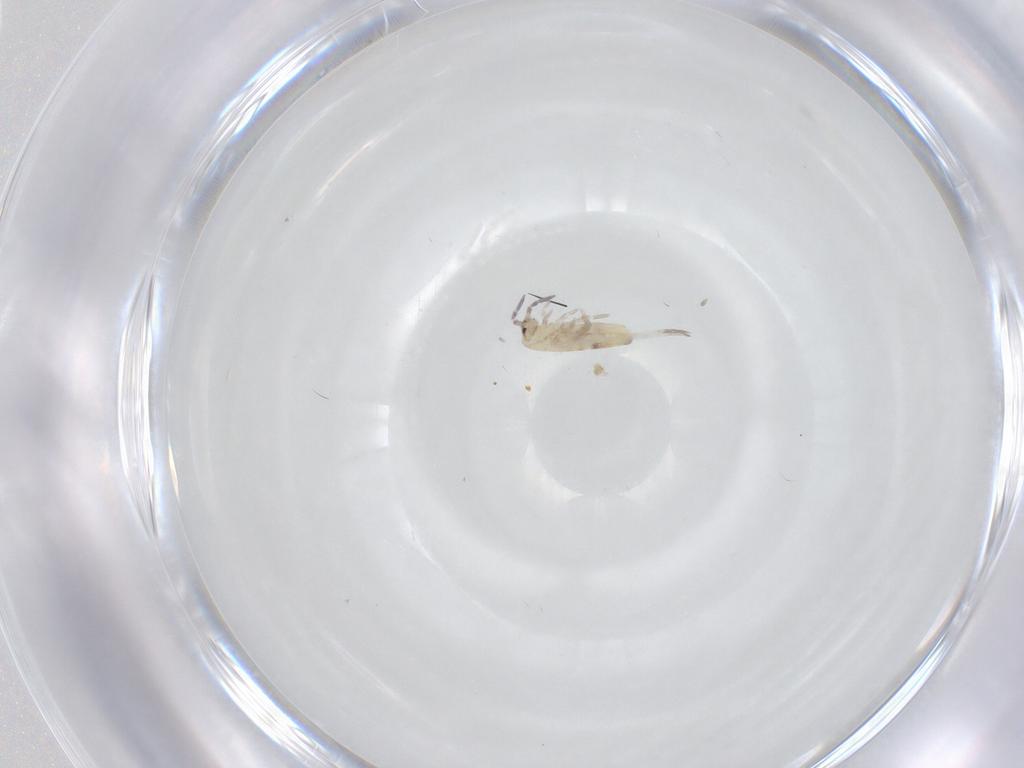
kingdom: Animalia
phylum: Arthropoda
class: Collembola
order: Entomobryomorpha
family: Entomobryidae
